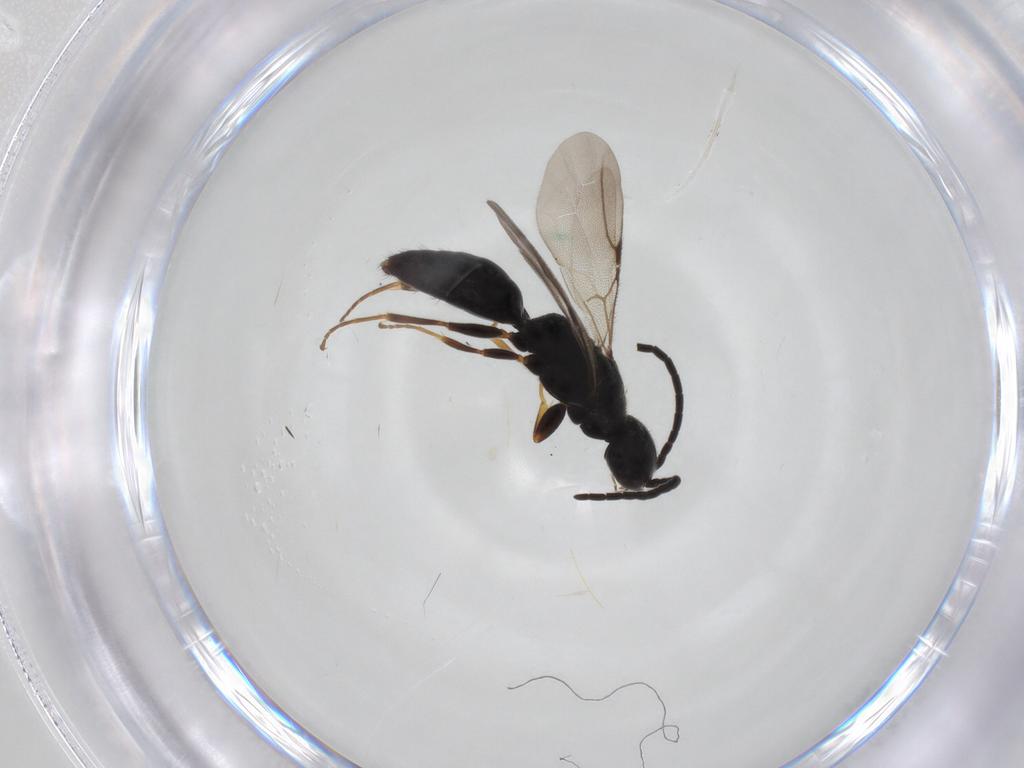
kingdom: Animalia
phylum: Arthropoda
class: Insecta
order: Hymenoptera
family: Bethylidae
